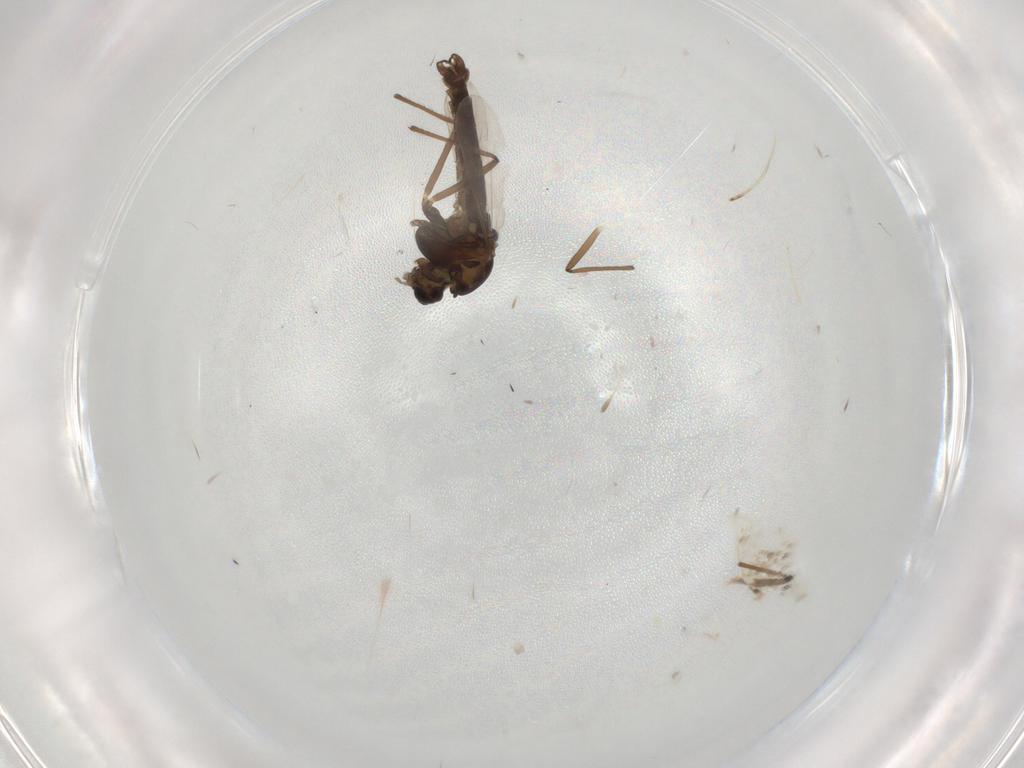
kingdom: Animalia
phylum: Arthropoda
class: Insecta
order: Diptera
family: Chironomidae
